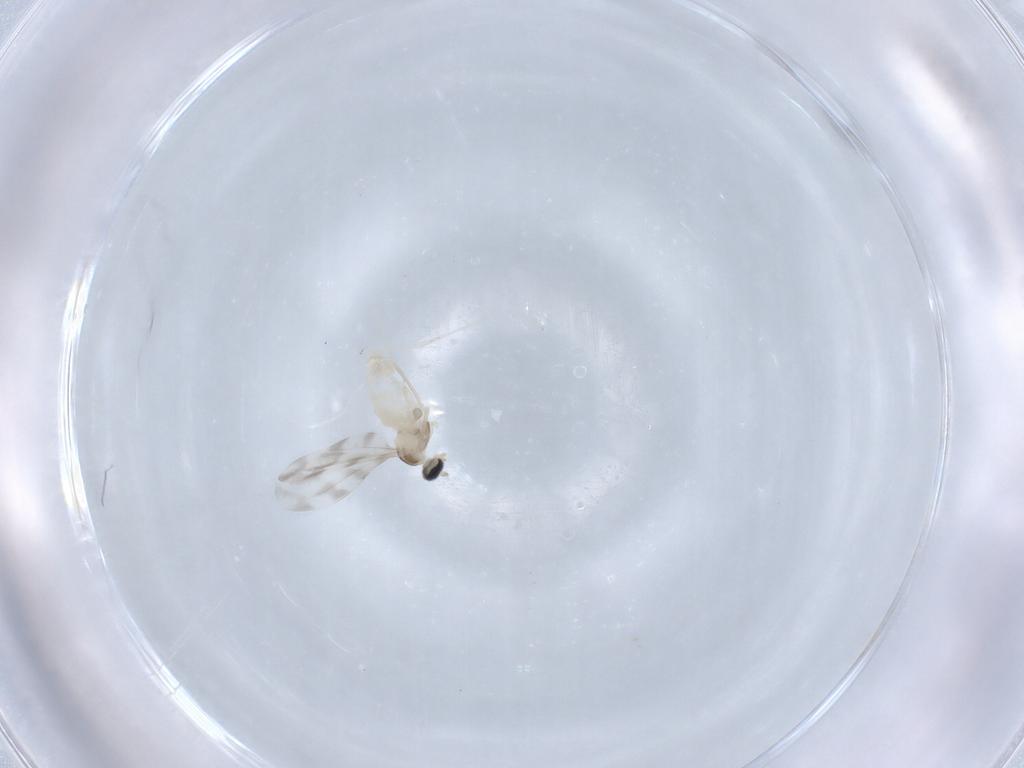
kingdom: Animalia
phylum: Arthropoda
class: Insecta
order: Diptera
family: Cecidomyiidae
